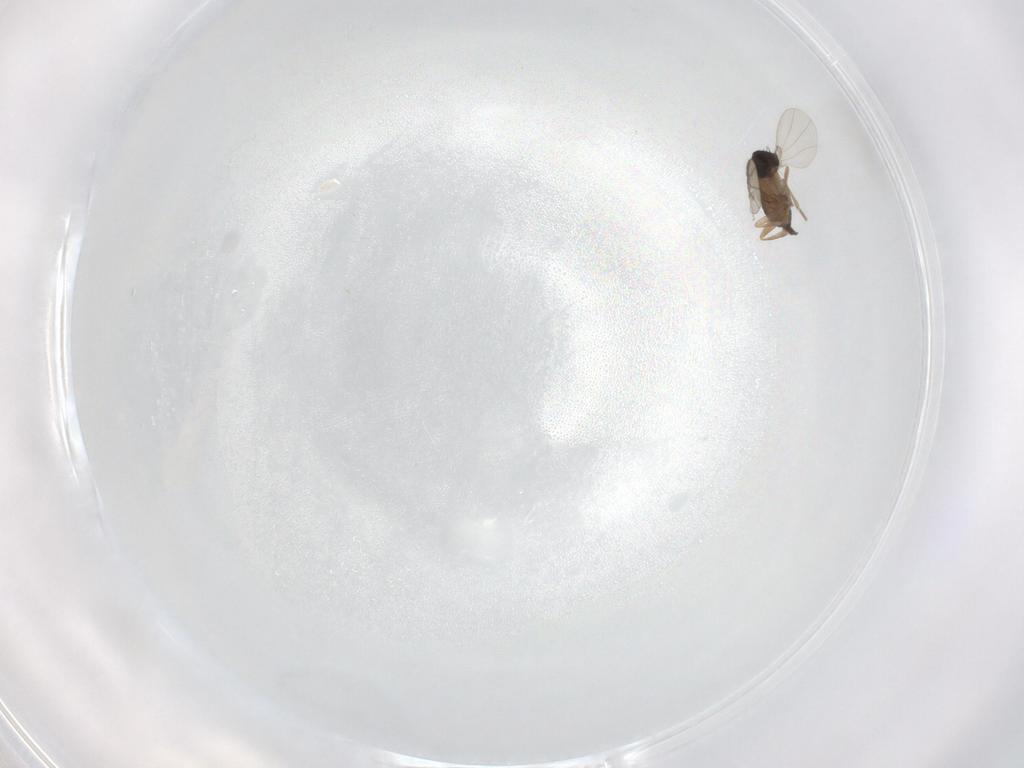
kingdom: Animalia
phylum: Arthropoda
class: Insecta
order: Diptera
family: Phoridae
